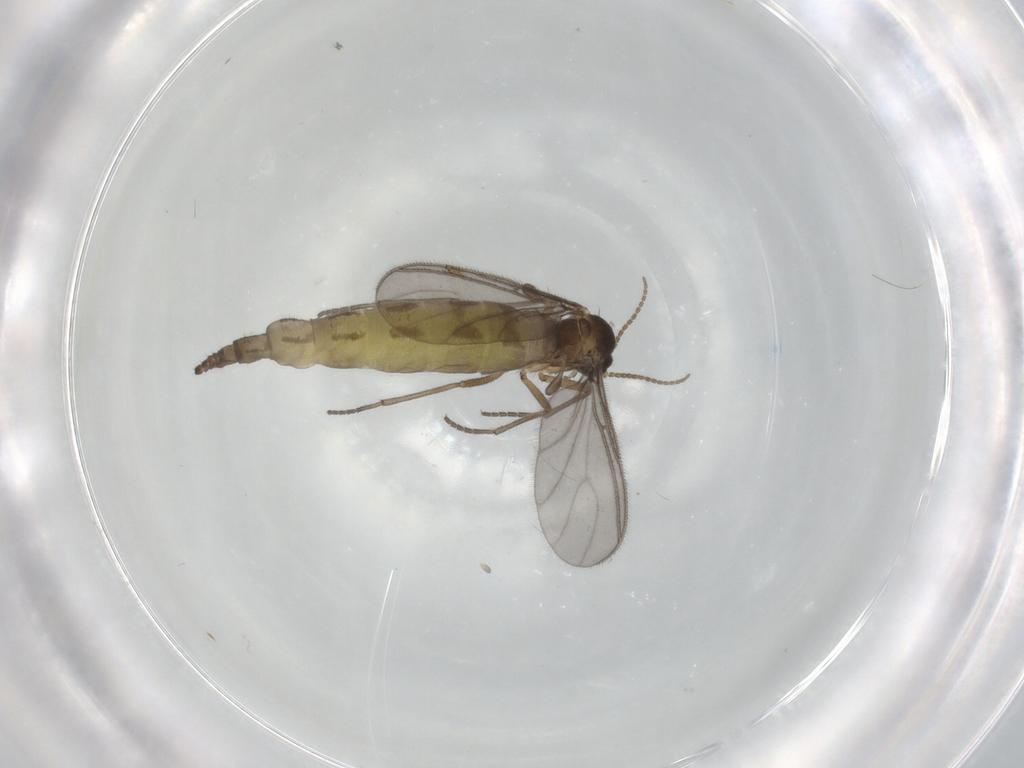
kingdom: Animalia
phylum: Arthropoda
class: Insecta
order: Diptera
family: Sciaridae
